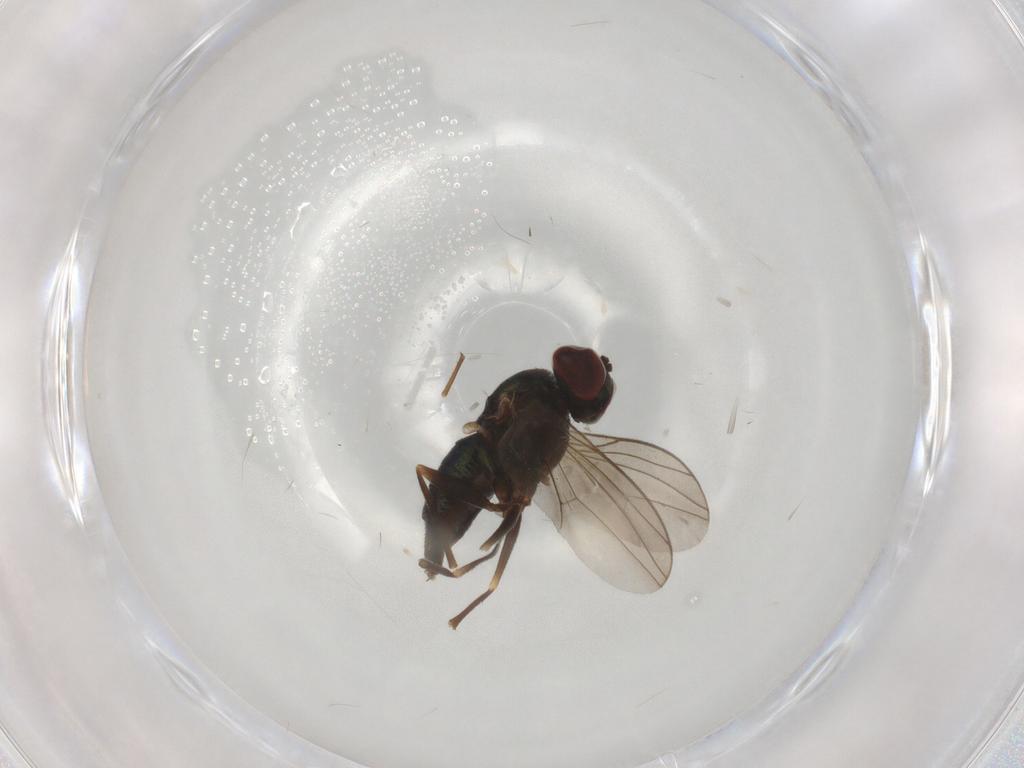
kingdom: Animalia
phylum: Arthropoda
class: Insecta
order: Diptera
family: Dolichopodidae
